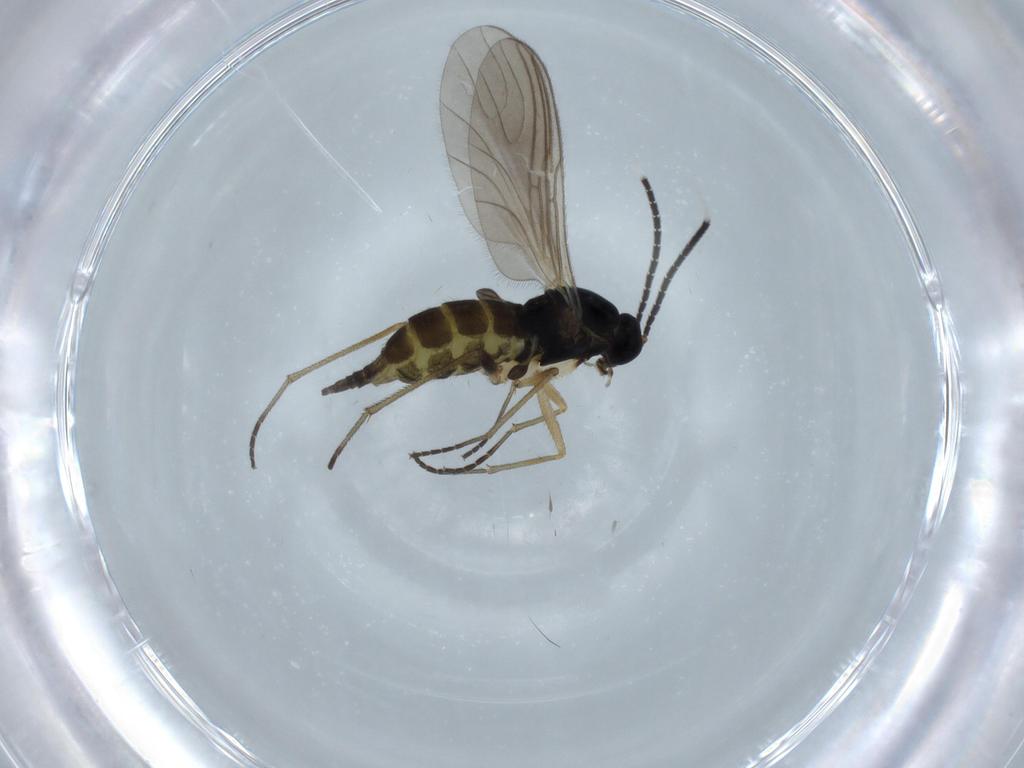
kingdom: Animalia
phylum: Arthropoda
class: Insecta
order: Diptera
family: Sciaridae
